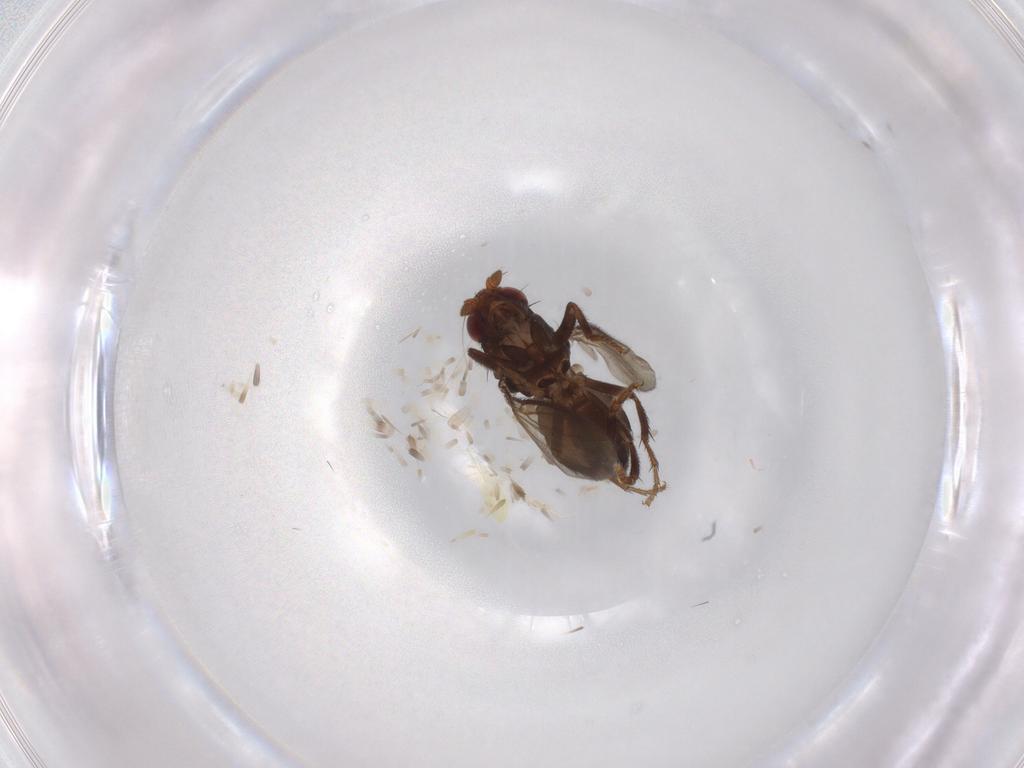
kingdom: Animalia
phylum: Arthropoda
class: Insecta
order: Diptera
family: Sphaeroceridae
